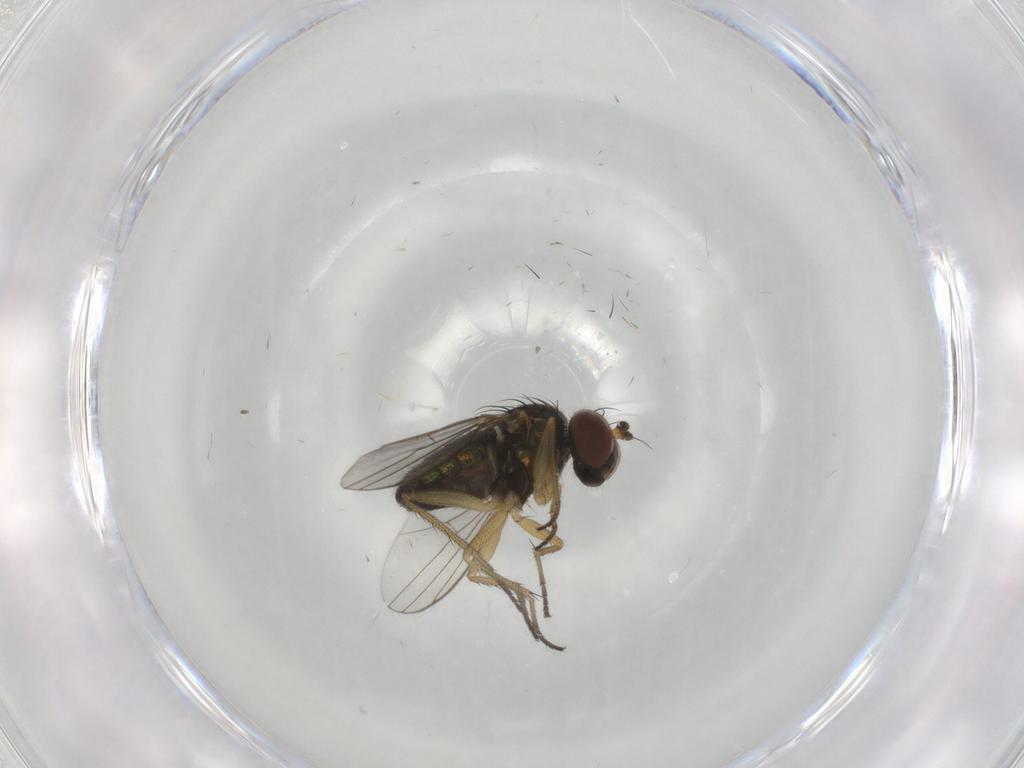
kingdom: Animalia
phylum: Arthropoda
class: Insecta
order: Diptera
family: Dolichopodidae
